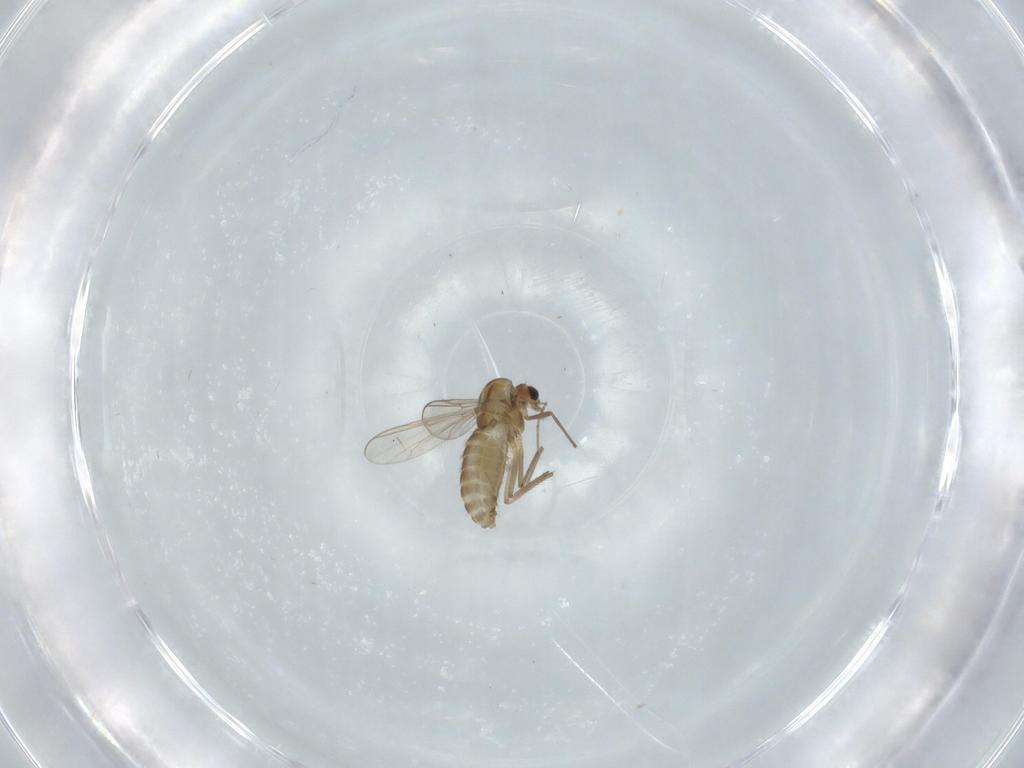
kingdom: Animalia
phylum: Arthropoda
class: Insecta
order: Diptera
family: Chironomidae
